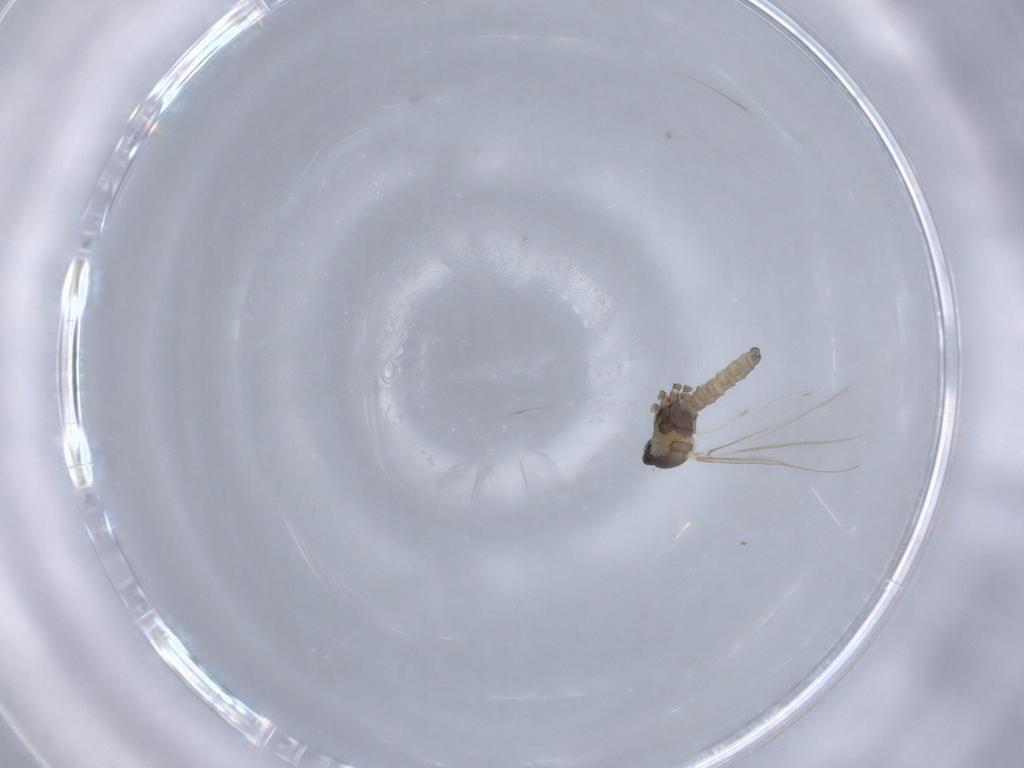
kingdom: Animalia
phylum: Arthropoda
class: Insecta
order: Diptera
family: Cecidomyiidae
